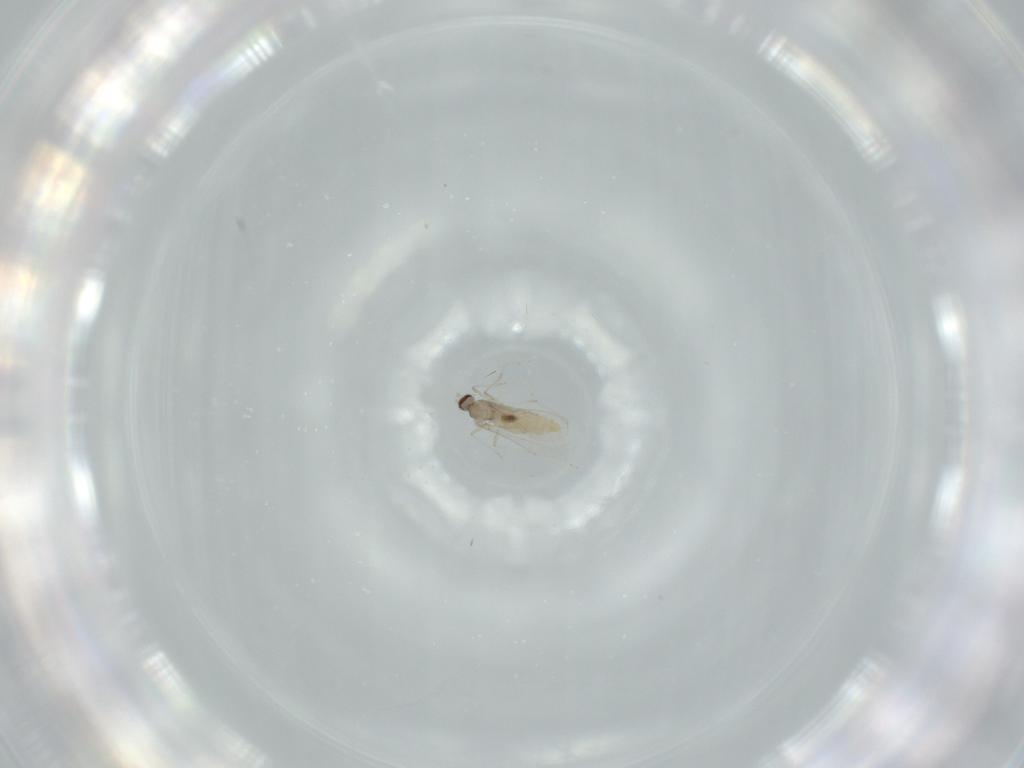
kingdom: Animalia
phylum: Arthropoda
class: Insecta
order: Diptera
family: Cecidomyiidae
